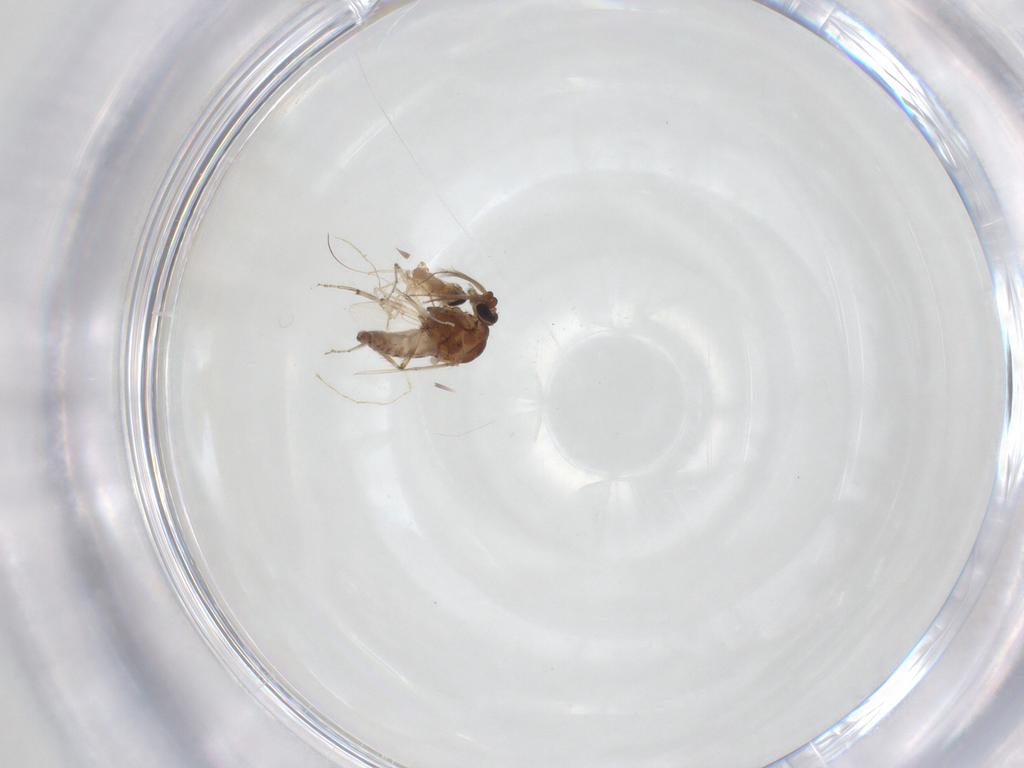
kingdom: Animalia
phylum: Arthropoda
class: Insecta
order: Diptera
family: Ceratopogonidae
